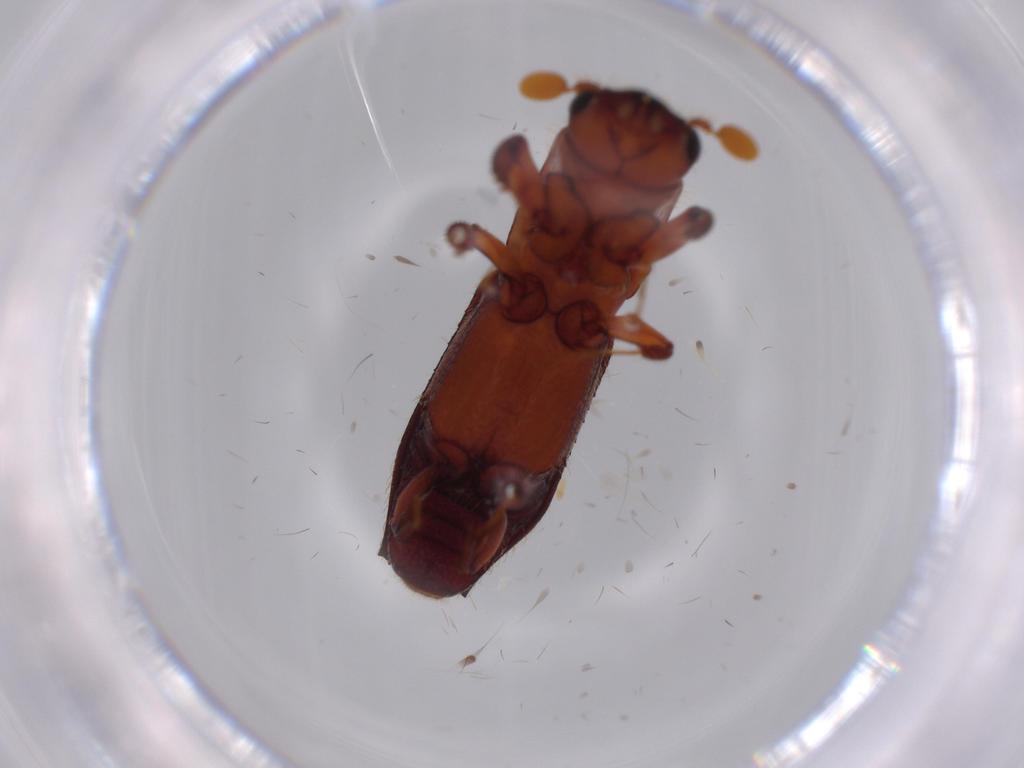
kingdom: Animalia
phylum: Arthropoda
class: Insecta
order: Coleoptera
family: Curculionidae
